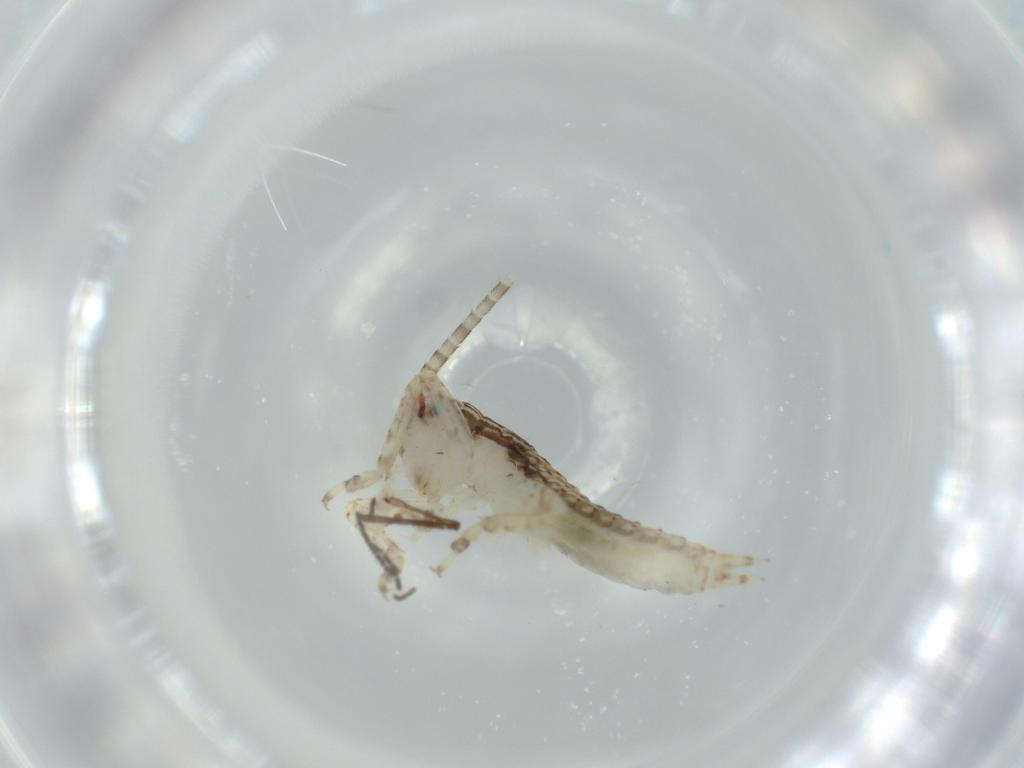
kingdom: Animalia
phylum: Arthropoda
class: Insecta
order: Orthoptera
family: Gryllidae
